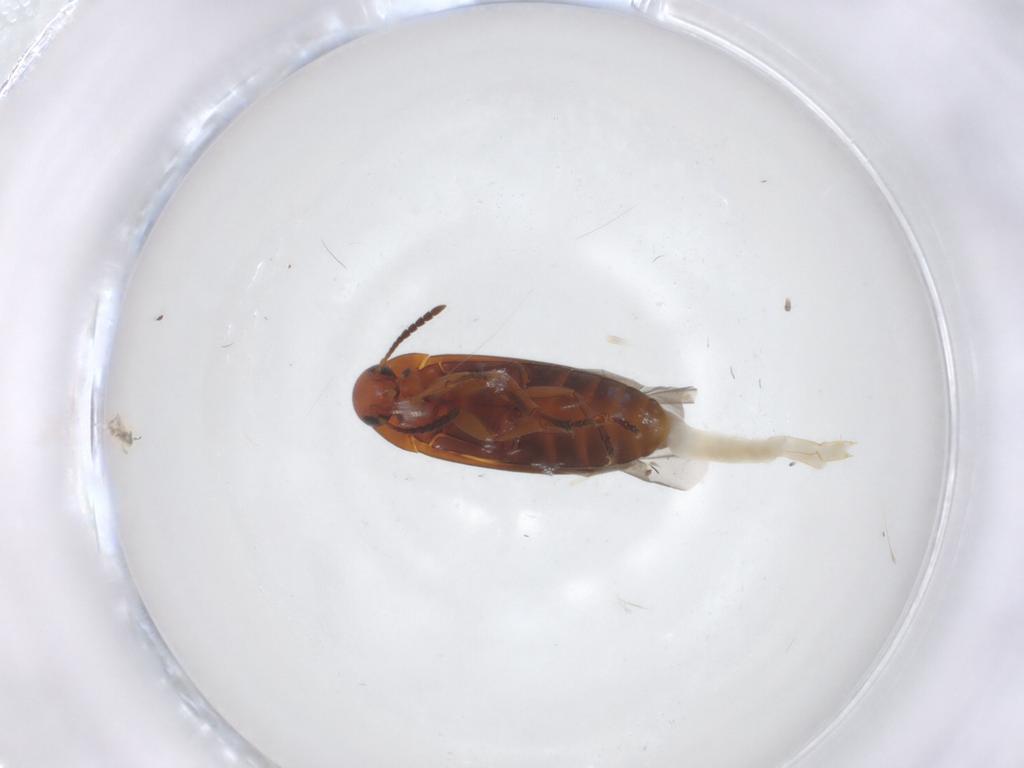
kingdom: Animalia
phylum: Arthropoda
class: Insecta
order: Coleoptera
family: Scraptiidae
